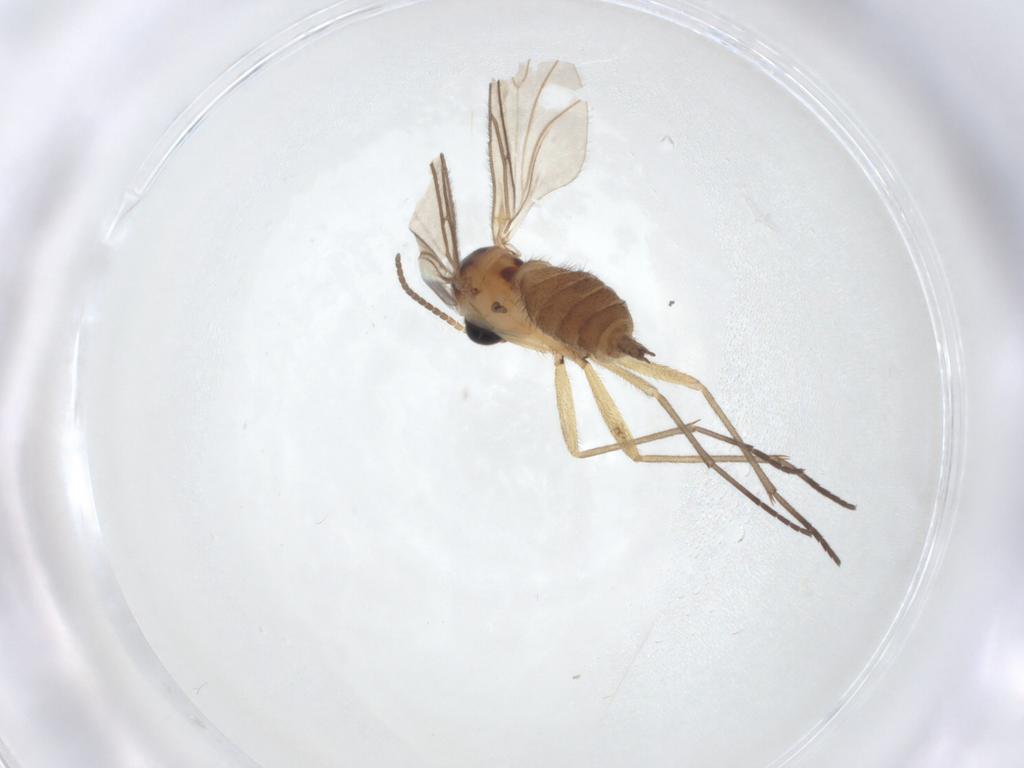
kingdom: Animalia
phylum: Arthropoda
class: Insecta
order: Diptera
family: Sciaridae
